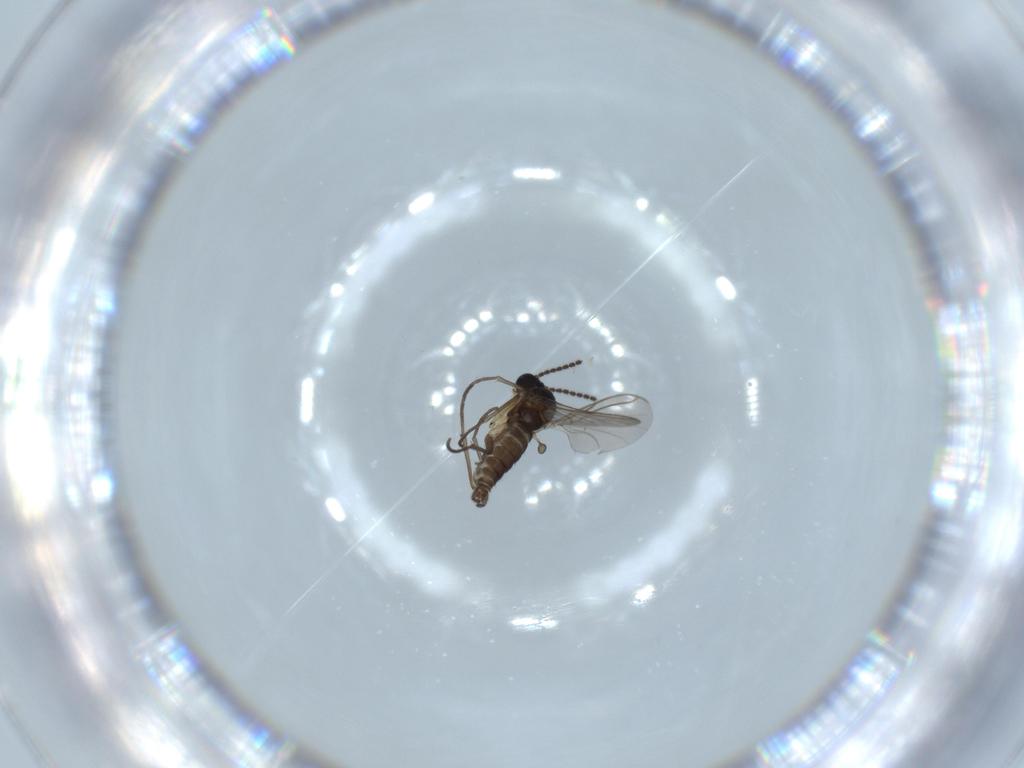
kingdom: Animalia
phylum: Arthropoda
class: Insecta
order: Diptera
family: Sciaridae
